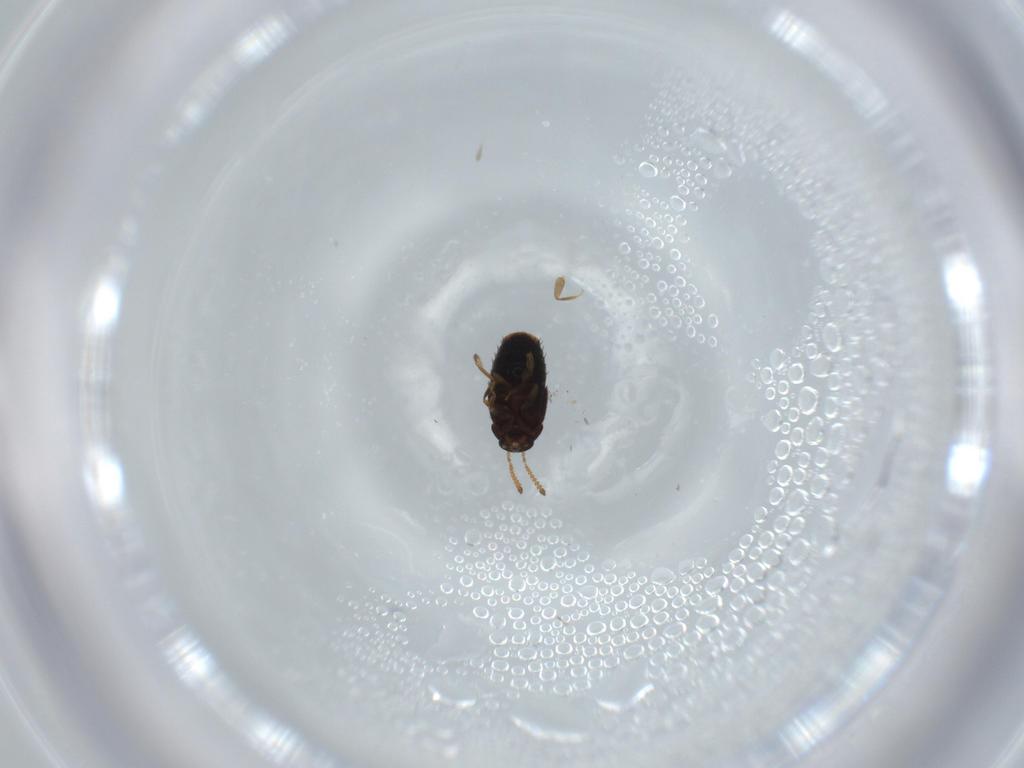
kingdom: Animalia
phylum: Arthropoda
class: Insecta
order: Coleoptera
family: Staphylinidae
